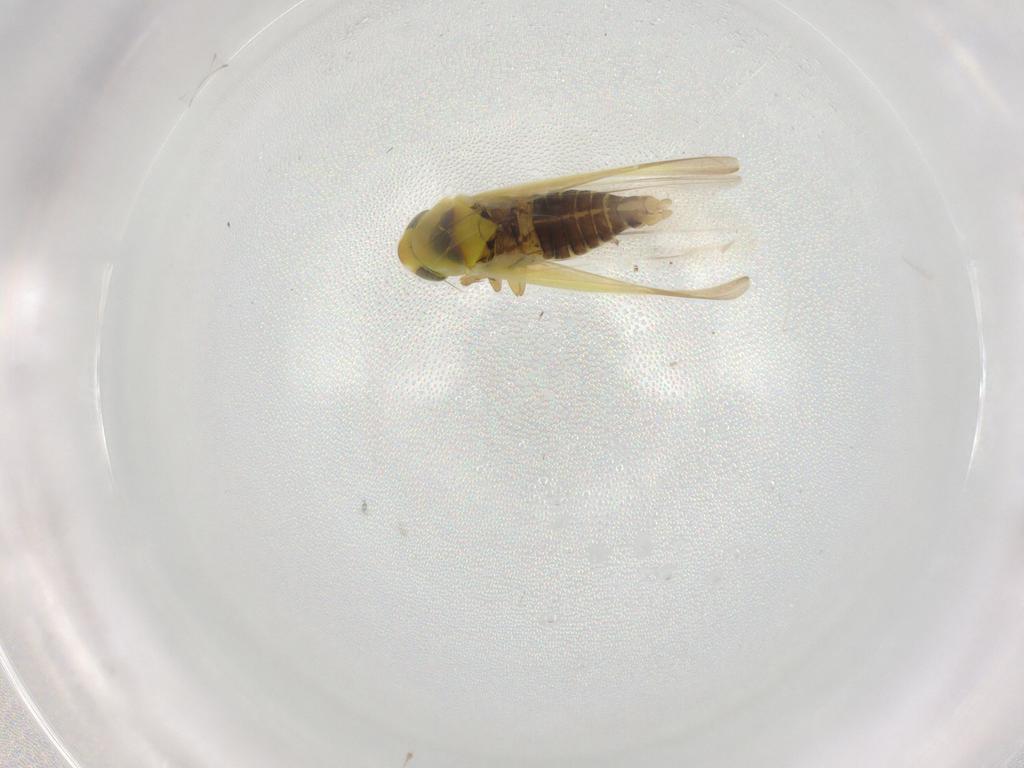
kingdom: Animalia
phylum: Arthropoda
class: Insecta
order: Hemiptera
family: Cicadellidae
